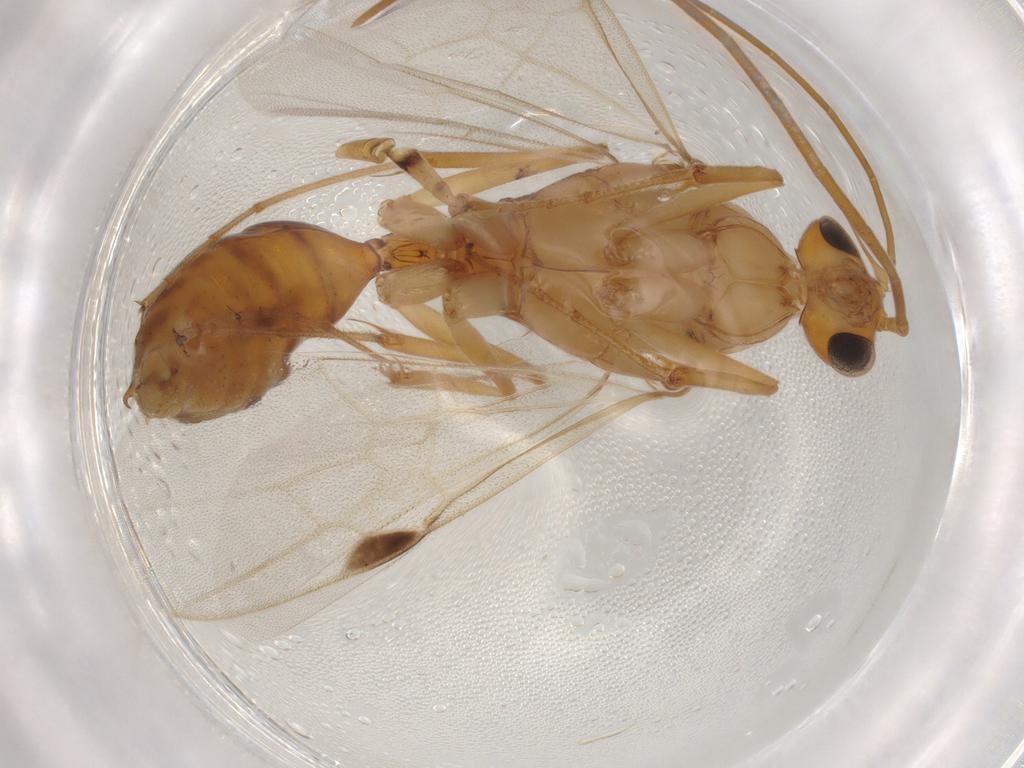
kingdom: Animalia
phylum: Arthropoda
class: Insecta
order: Hymenoptera
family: Formicidae
